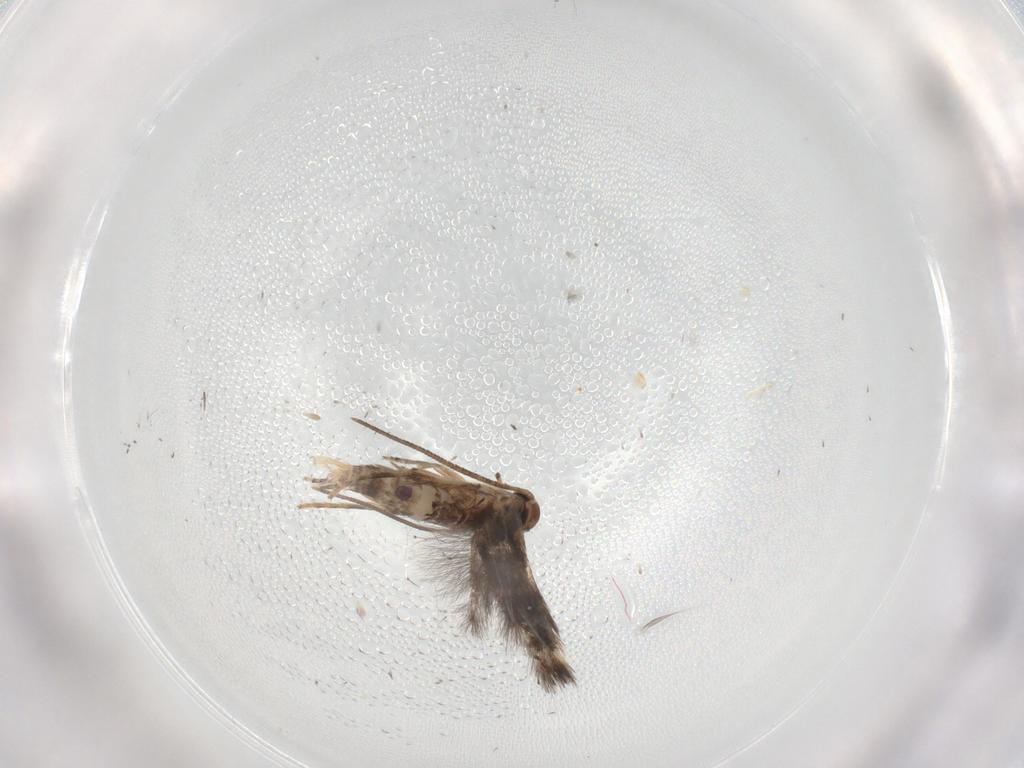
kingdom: Animalia
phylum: Arthropoda
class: Insecta
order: Lepidoptera
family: Elachistidae
